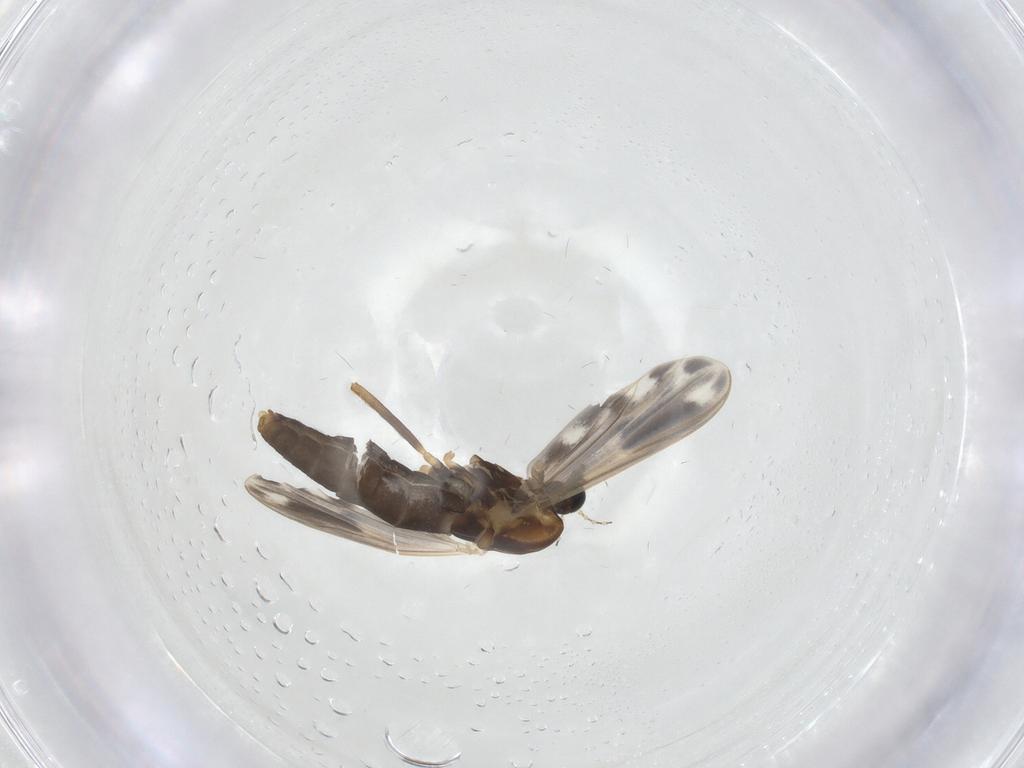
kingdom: Animalia
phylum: Arthropoda
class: Insecta
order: Diptera
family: Chironomidae
